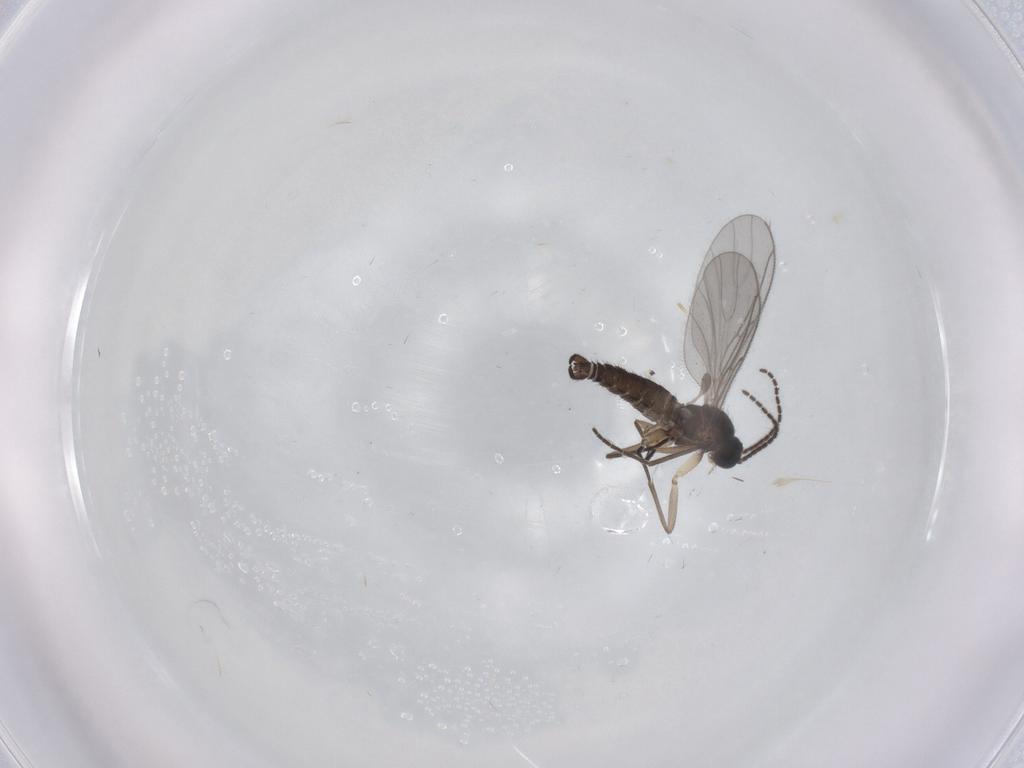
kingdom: Animalia
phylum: Arthropoda
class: Insecta
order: Diptera
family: Sciaridae
